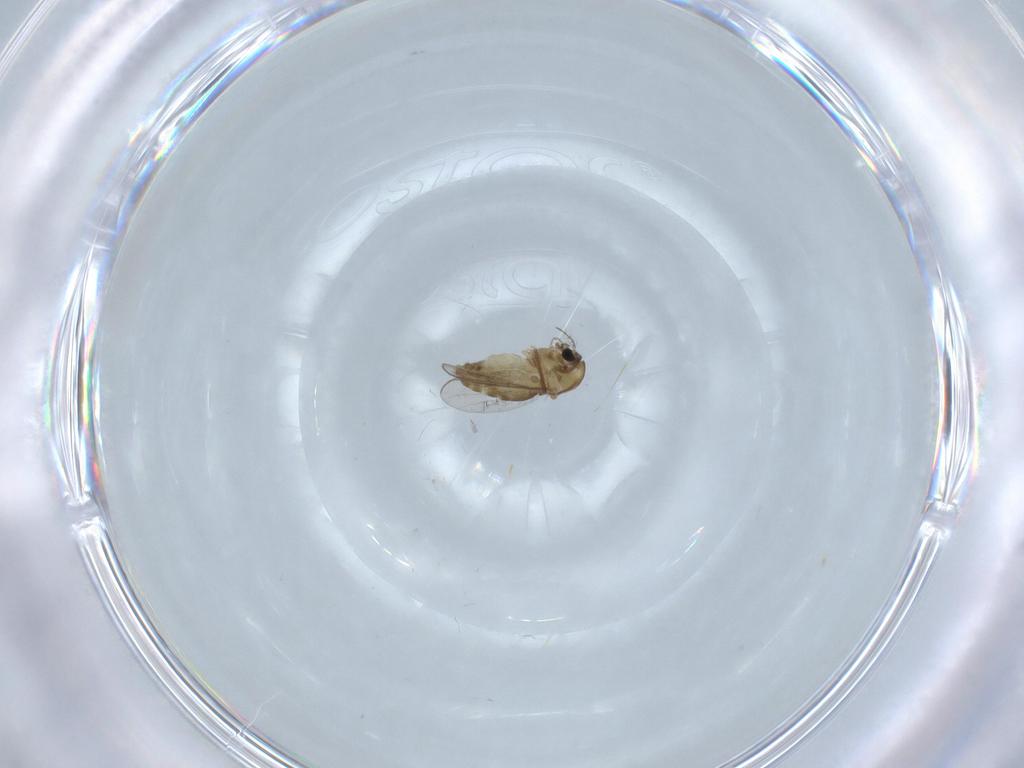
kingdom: Animalia
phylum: Arthropoda
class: Insecta
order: Diptera
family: Chironomidae
